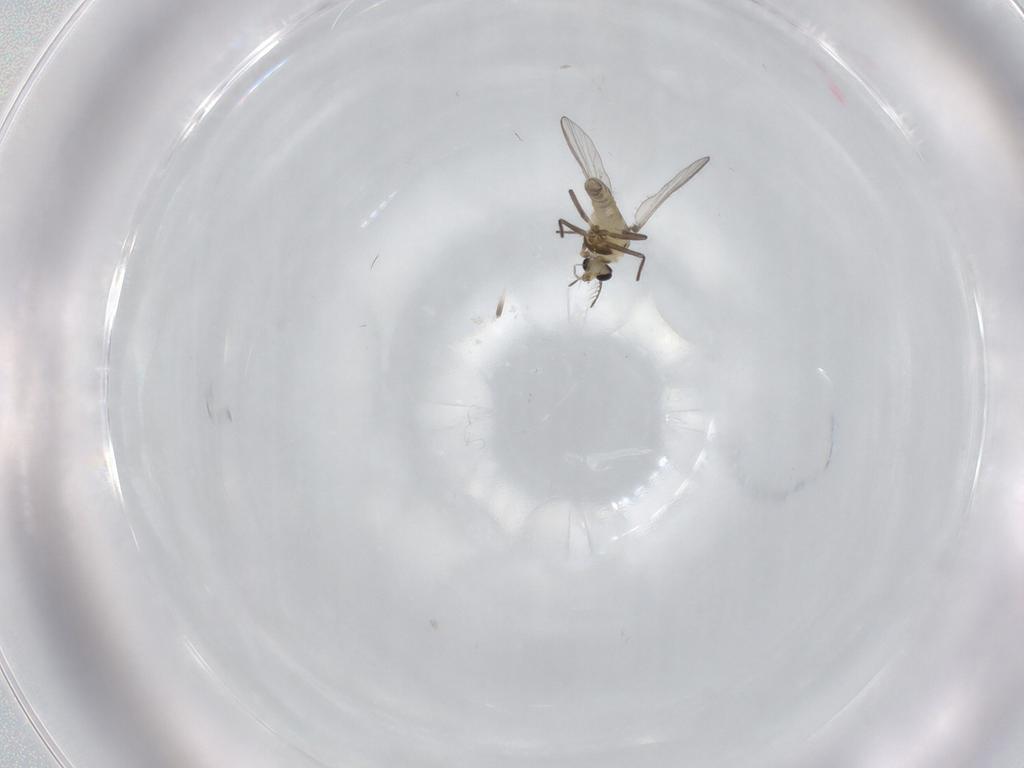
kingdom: Animalia
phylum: Arthropoda
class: Insecta
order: Diptera
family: Chironomidae
